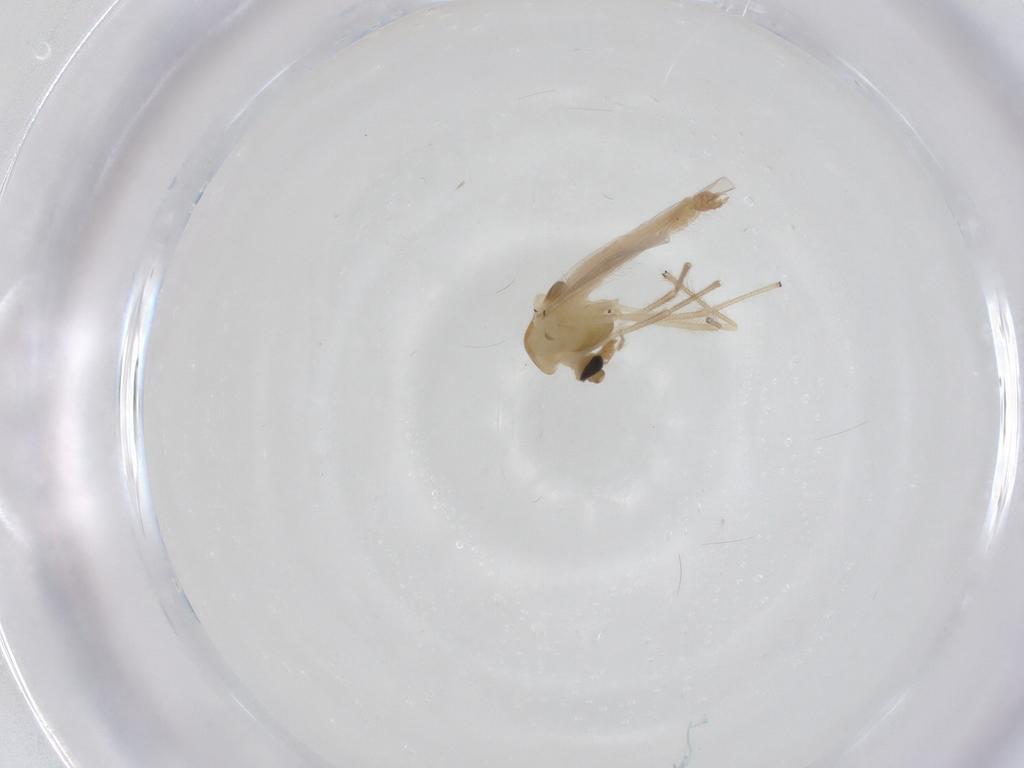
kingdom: Animalia
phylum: Arthropoda
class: Insecta
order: Diptera
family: Chironomidae
